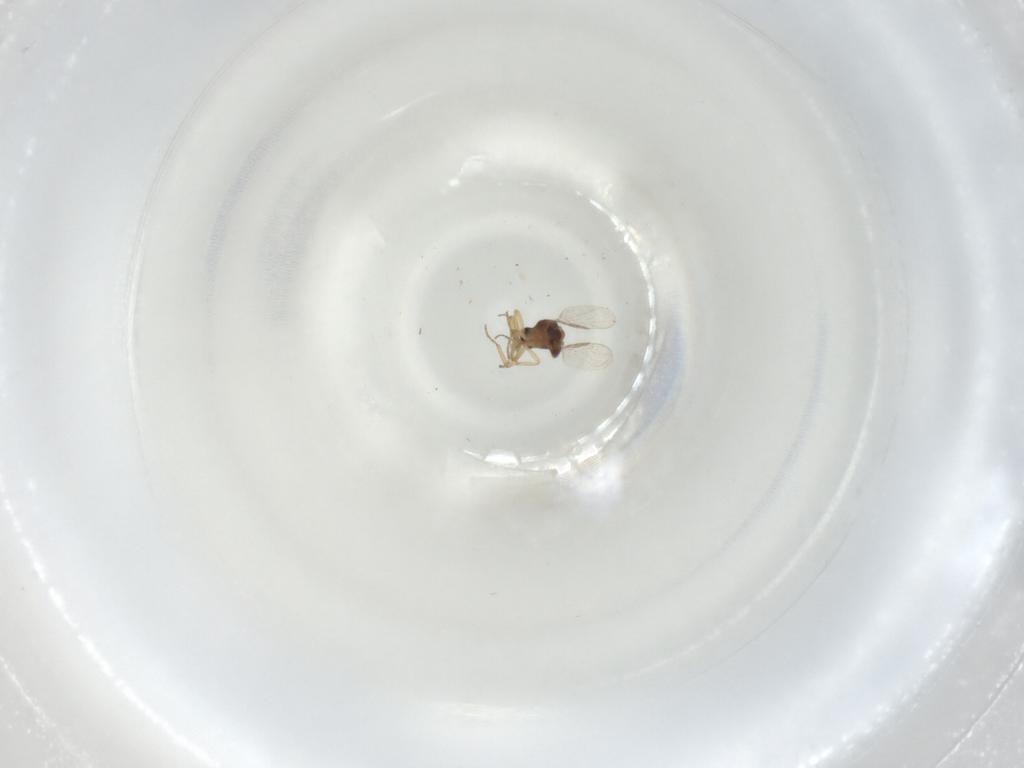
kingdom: Animalia
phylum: Arthropoda
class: Insecta
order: Diptera
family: Ceratopogonidae
